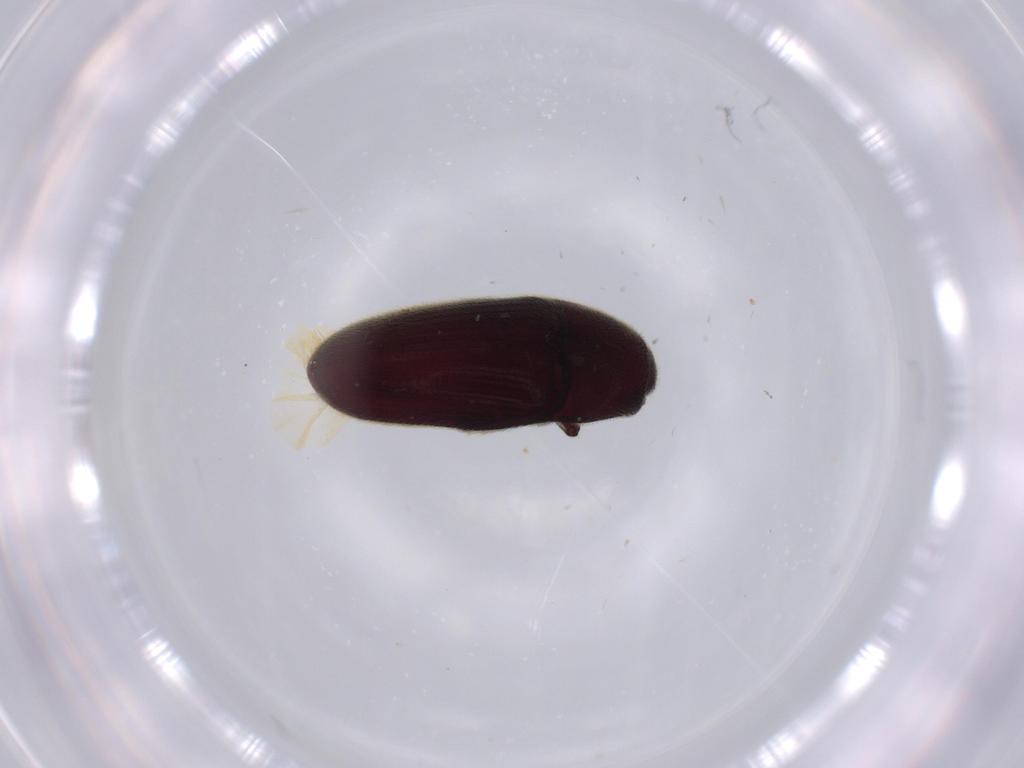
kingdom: Animalia
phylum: Arthropoda
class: Insecta
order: Coleoptera
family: Throscidae
